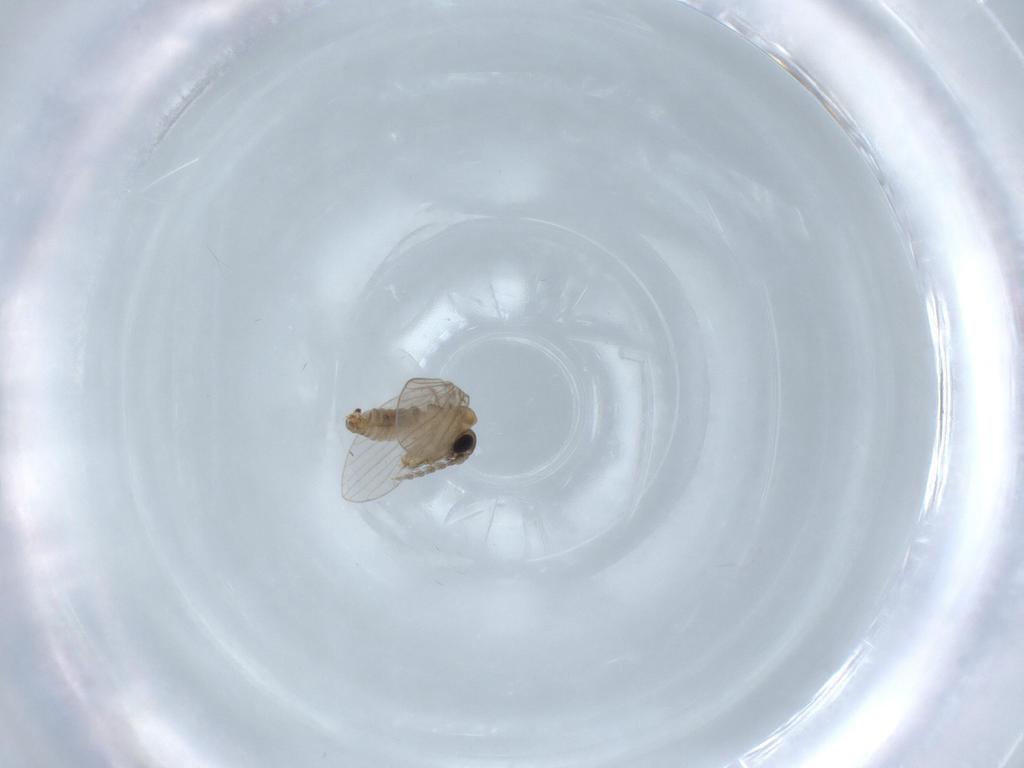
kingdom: Animalia
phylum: Arthropoda
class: Insecta
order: Diptera
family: Psychodidae
